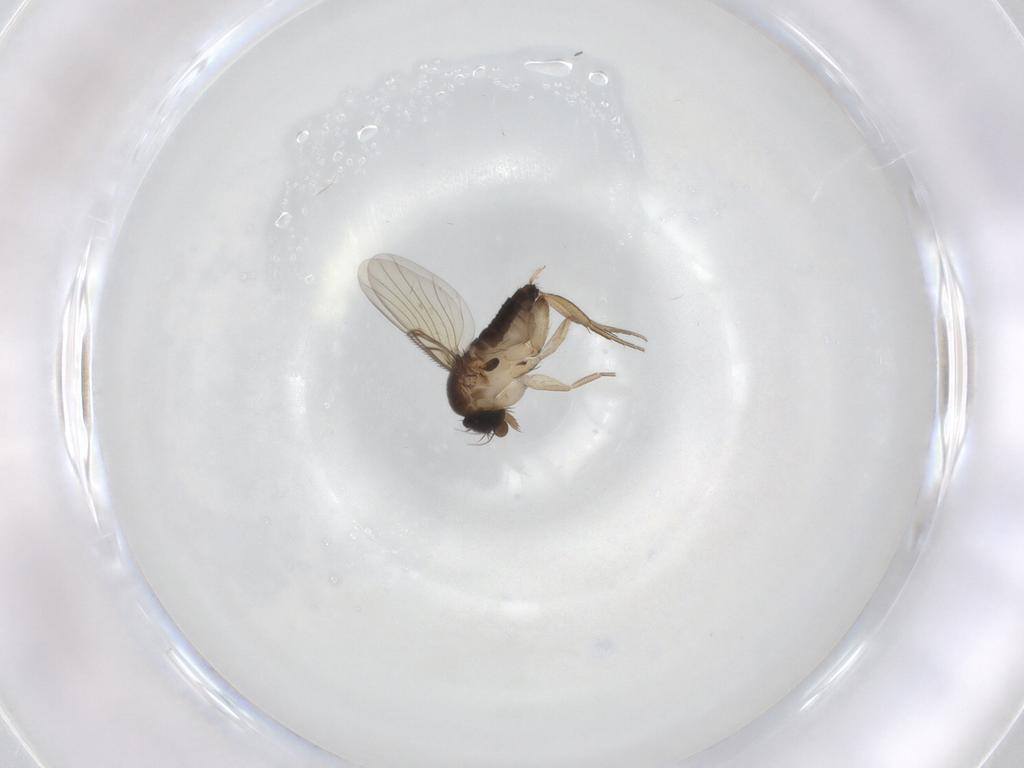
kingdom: Animalia
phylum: Arthropoda
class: Insecta
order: Diptera
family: Phoridae
